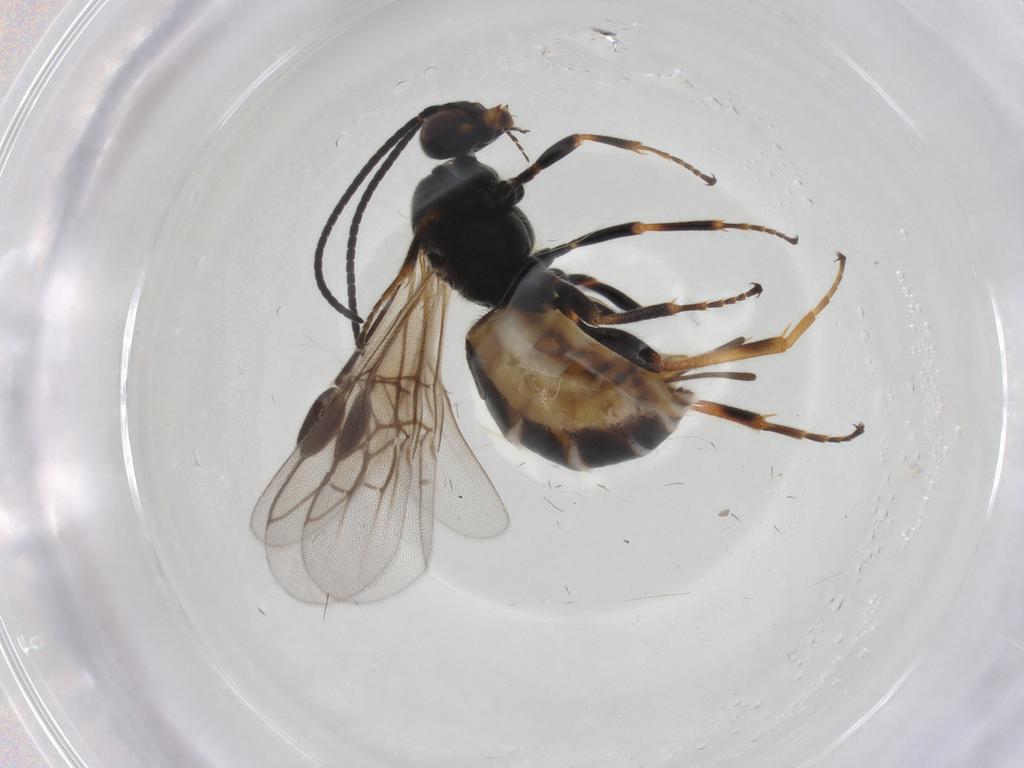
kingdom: Animalia
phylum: Arthropoda
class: Insecta
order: Hymenoptera
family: Braconidae
